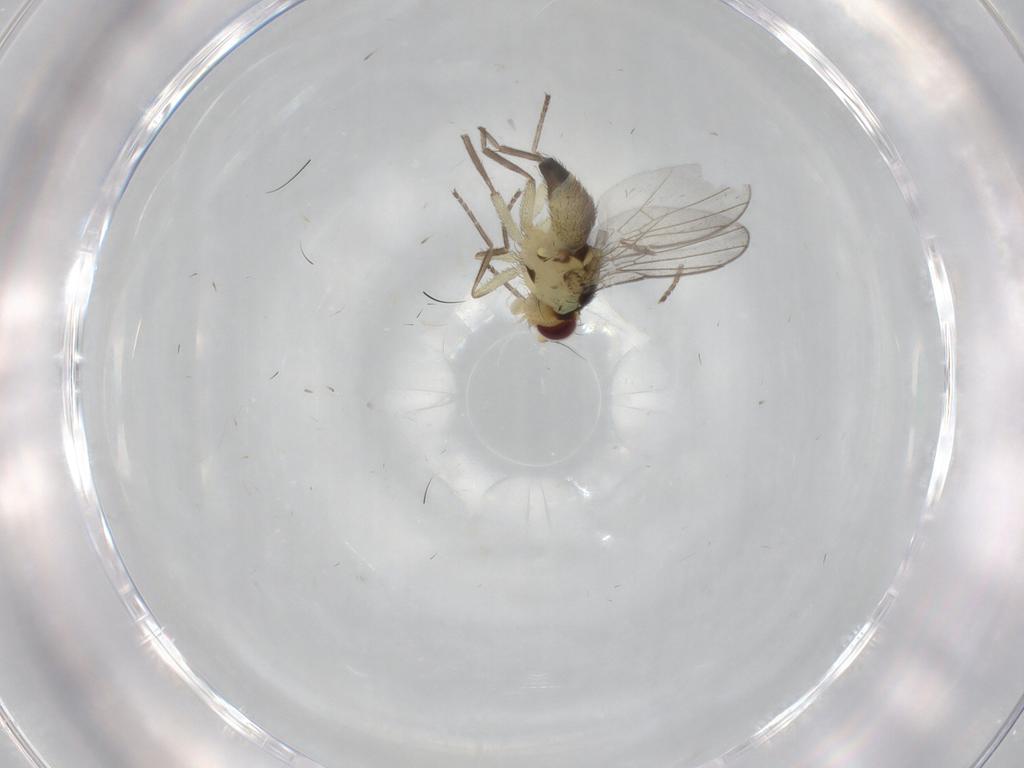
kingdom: Animalia
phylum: Arthropoda
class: Insecta
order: Diptera
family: Agromyzidae
